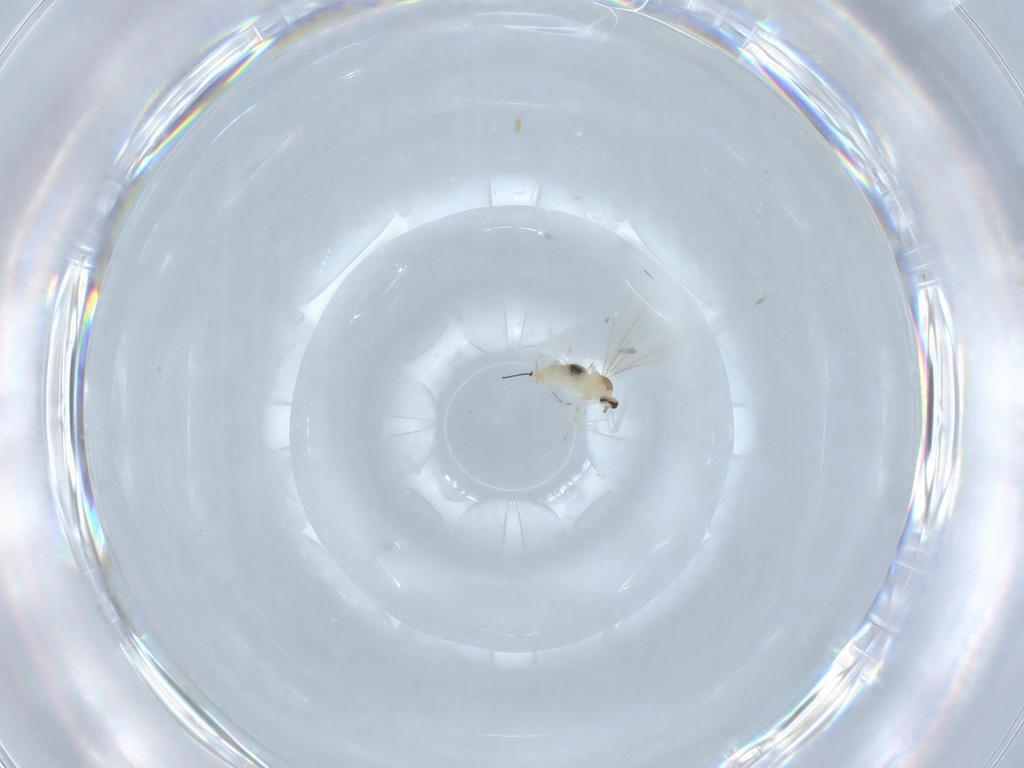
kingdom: Animalia
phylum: Arthropoda
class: Insecta
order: Diptera
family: Cecidomyiidae
